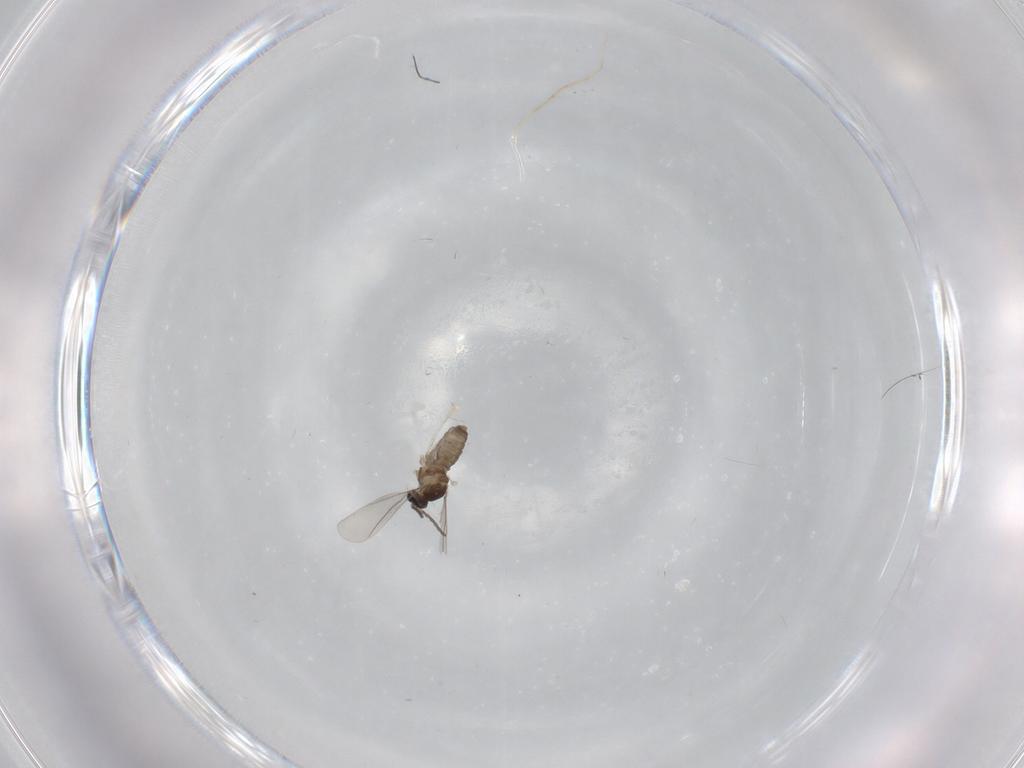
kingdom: Animalia
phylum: Arthropoda
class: Insecta
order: Diptera
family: Cecidomyiidae
